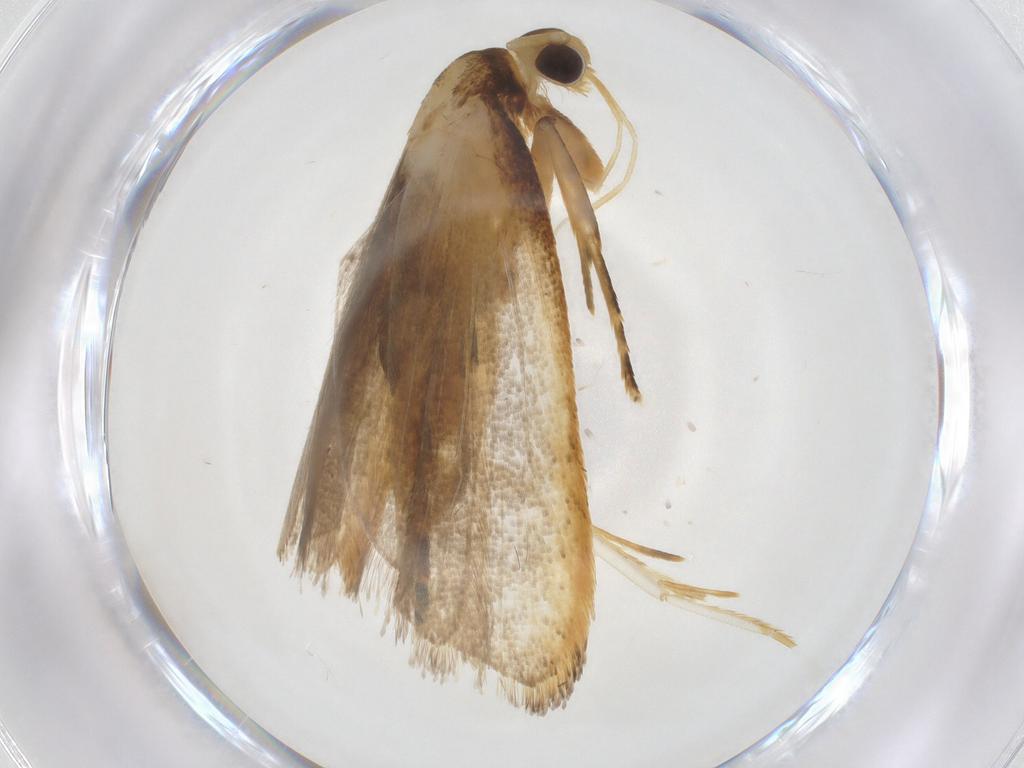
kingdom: Animalia
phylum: Arthropoda
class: Insecta
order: Lepidoptera
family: Lecithoceridae
